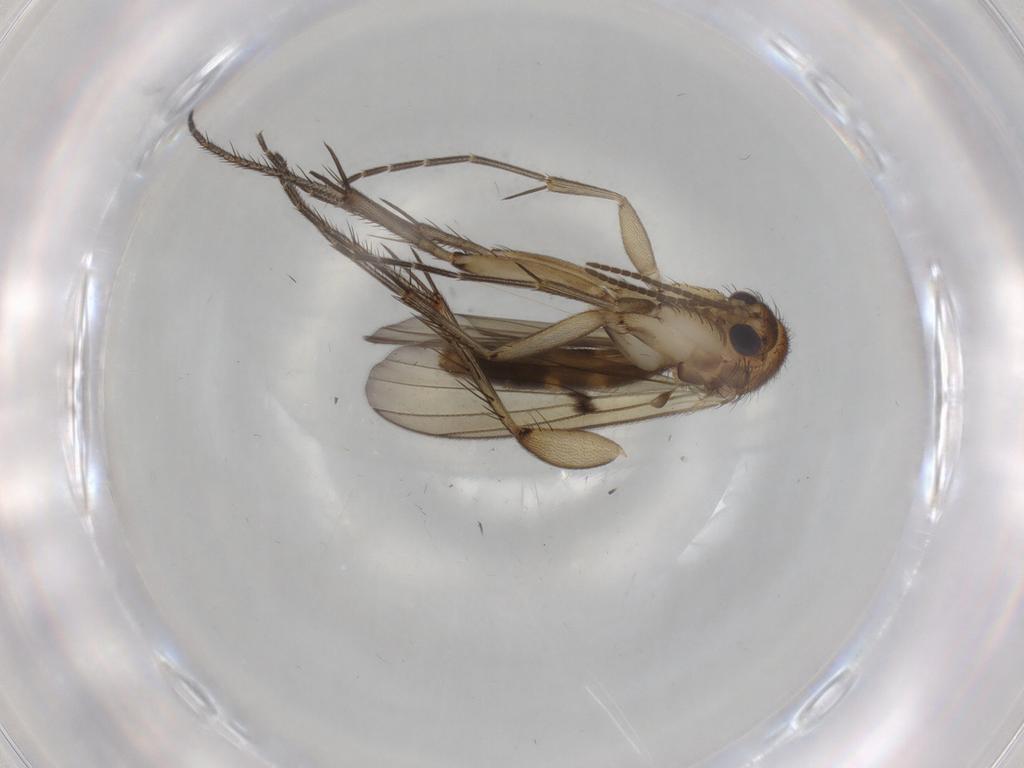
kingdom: Animalia
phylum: Arthropoda
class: Insecta
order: Diptera
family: Mycetophilidae
